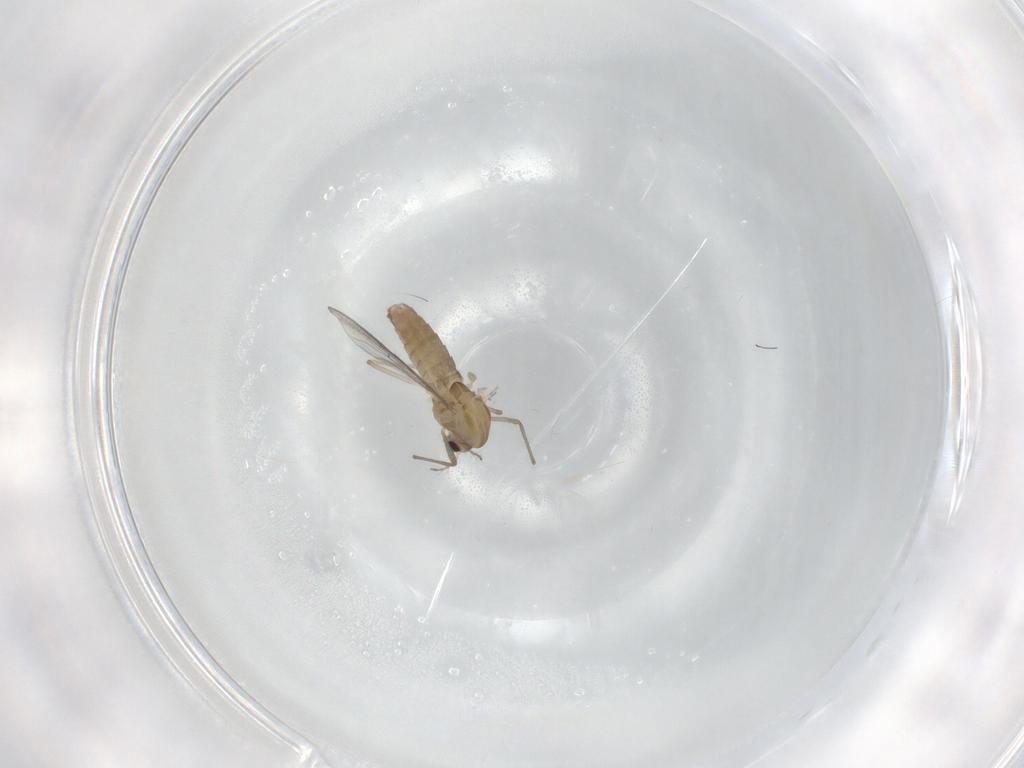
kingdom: Animalia
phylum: Arthropoda
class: Insecta
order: Diptera
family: Chironomidae
